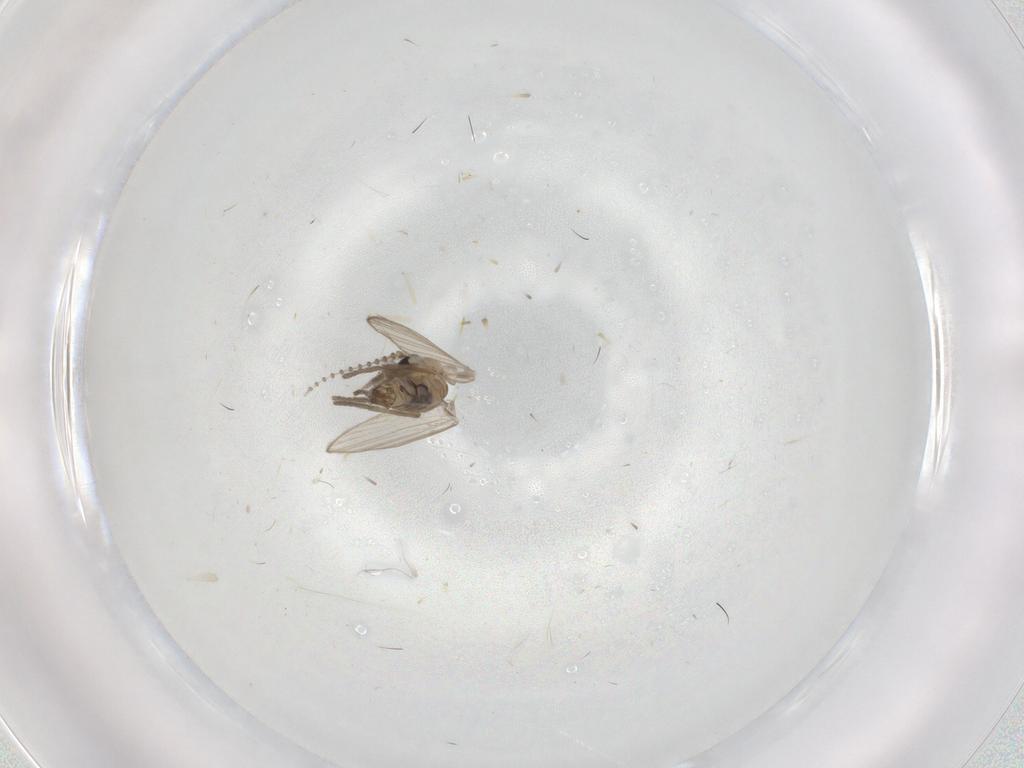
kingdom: Animalia
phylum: Arthropoda
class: Insecta
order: Diptera
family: Psychodidae
